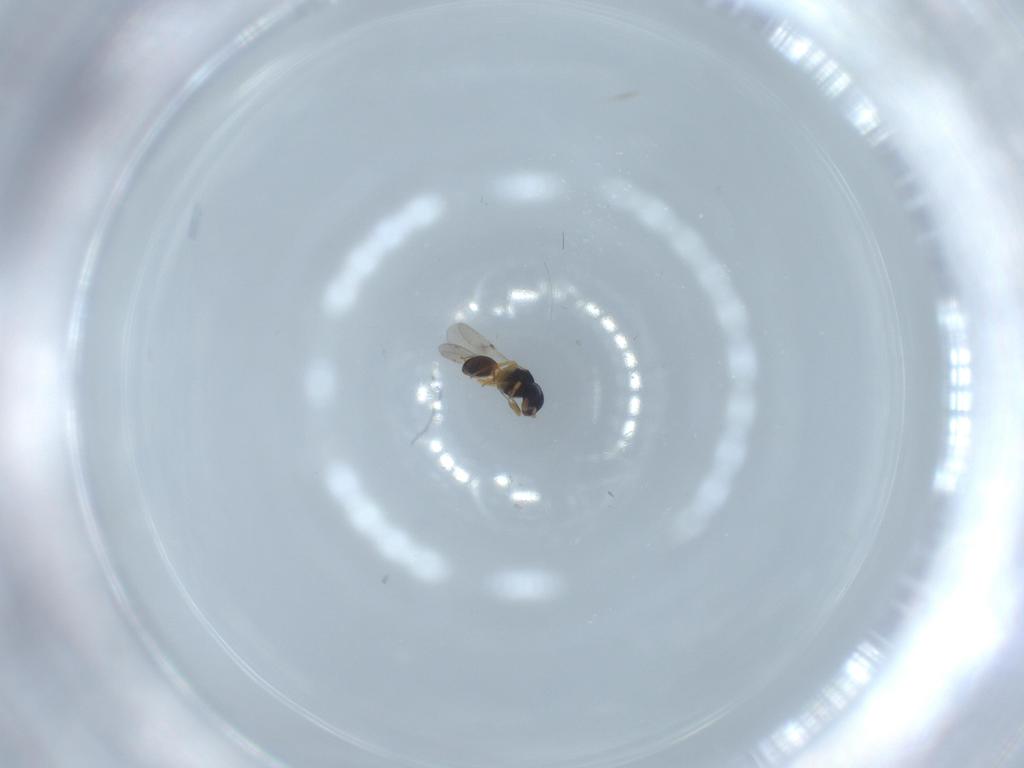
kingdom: Animalia
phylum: Arthropoda
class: Insecta
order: Hymenoptera
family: Scelionidae
